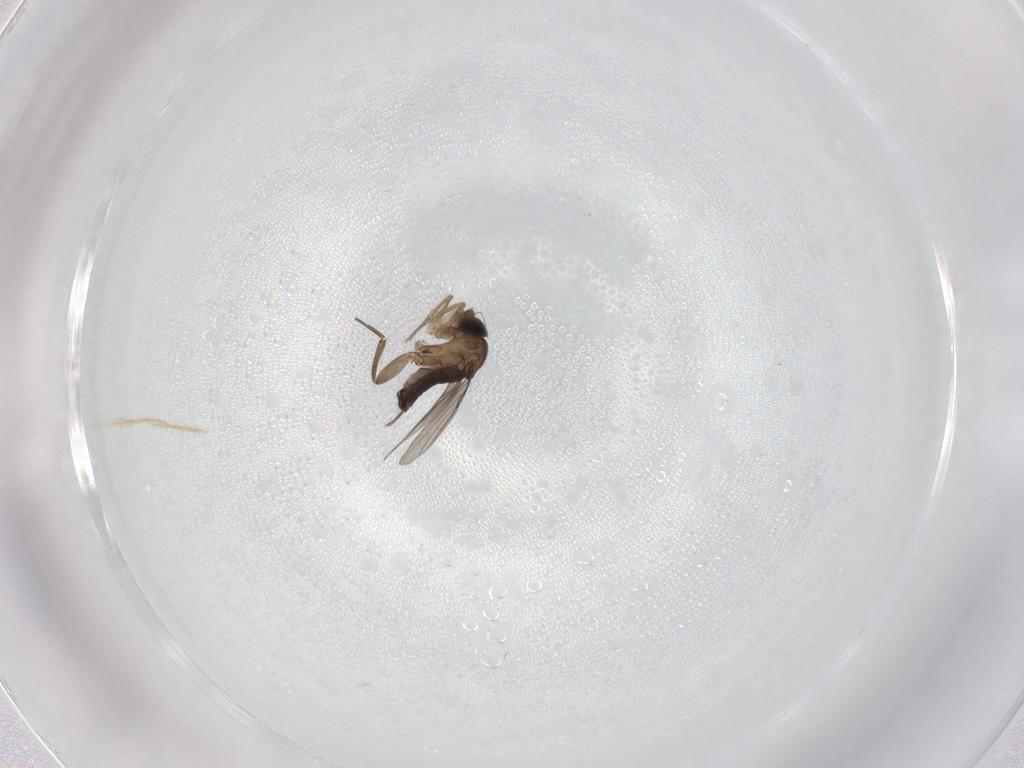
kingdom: Animalia
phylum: Arthropoda
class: Insecta
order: Diptera
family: Phoridae
